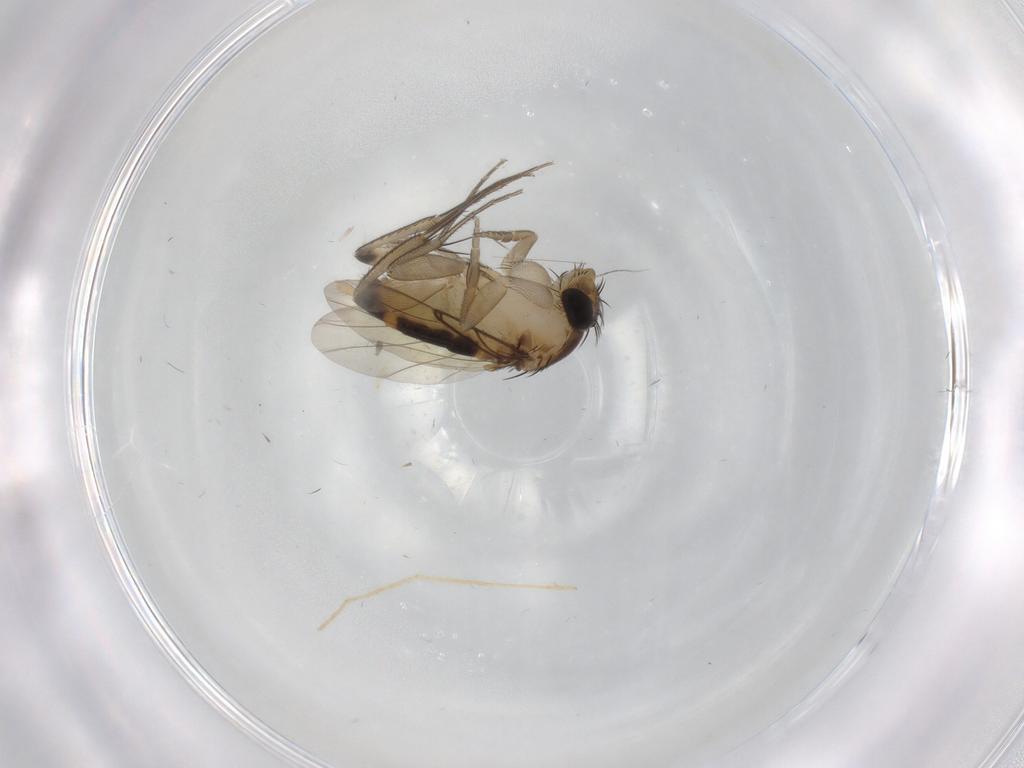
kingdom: Animalia
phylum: Arthropoda
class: Insecta
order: Diptera
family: Sciaridae
